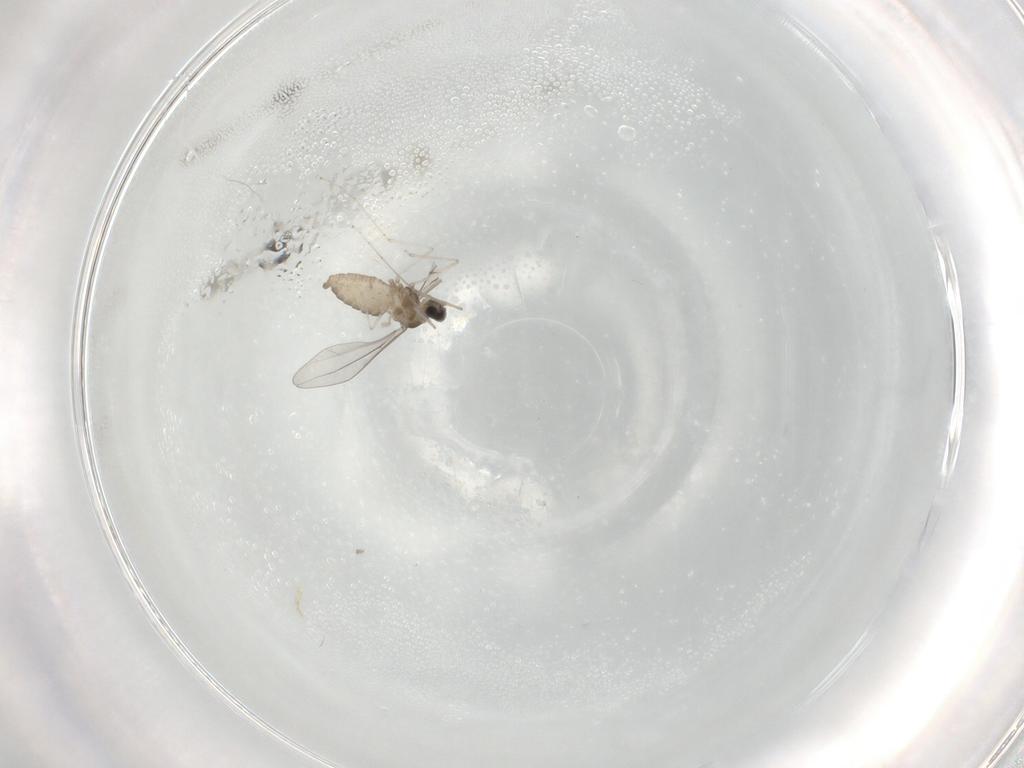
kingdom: Animalia
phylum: Arthropoda
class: Insecta
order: Diptera
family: Cecidomyiidae
